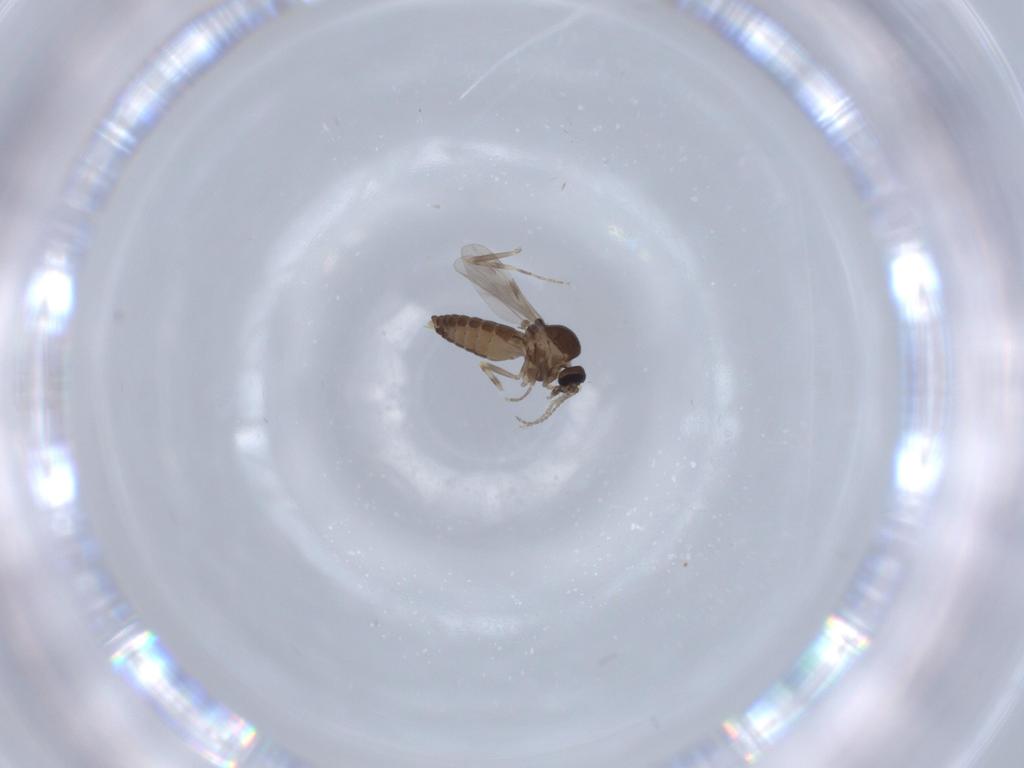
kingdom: Animalia
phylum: Arthropoda
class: Insecta
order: Diptera
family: Ceratopogonidae
